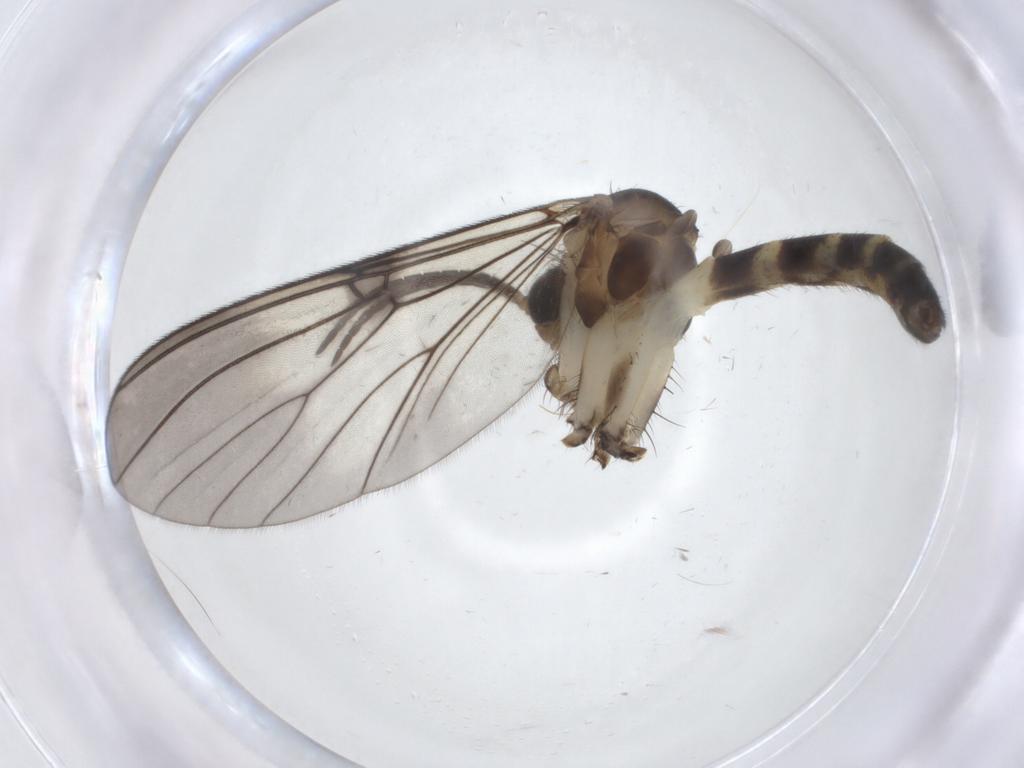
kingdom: Animalia
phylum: Arthropoda
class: Insecta
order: Diptera
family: Mycetophilidae
